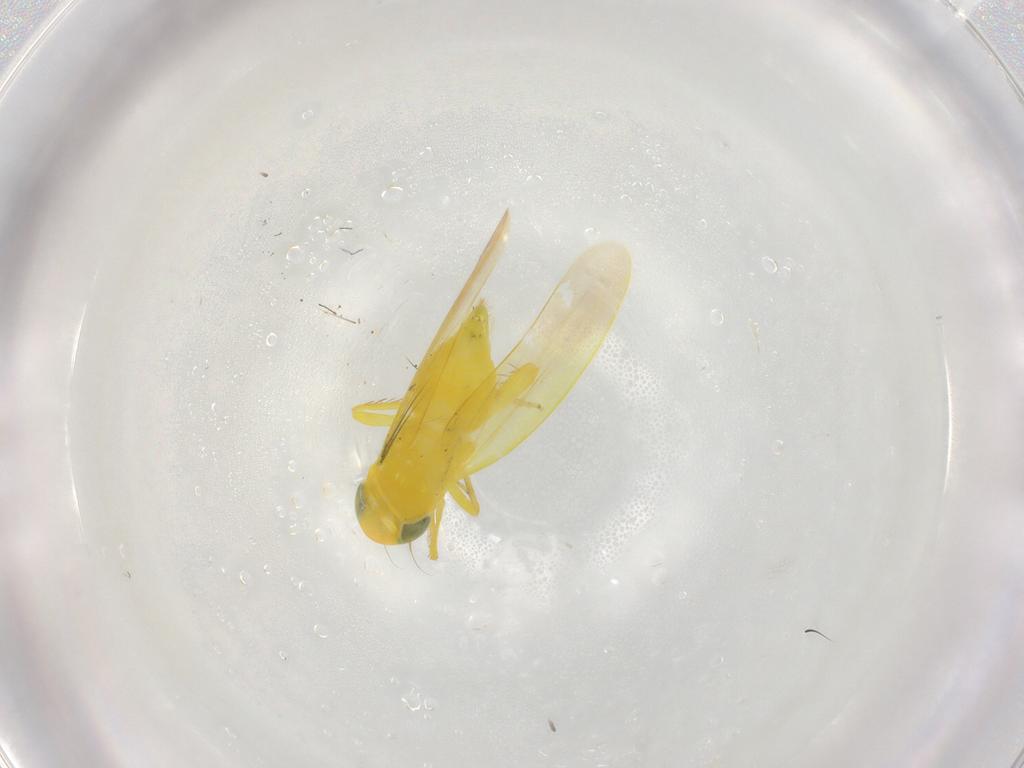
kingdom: Animalia
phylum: Arthropoda
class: Insecta
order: Hemiptera
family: Cicadellidae
